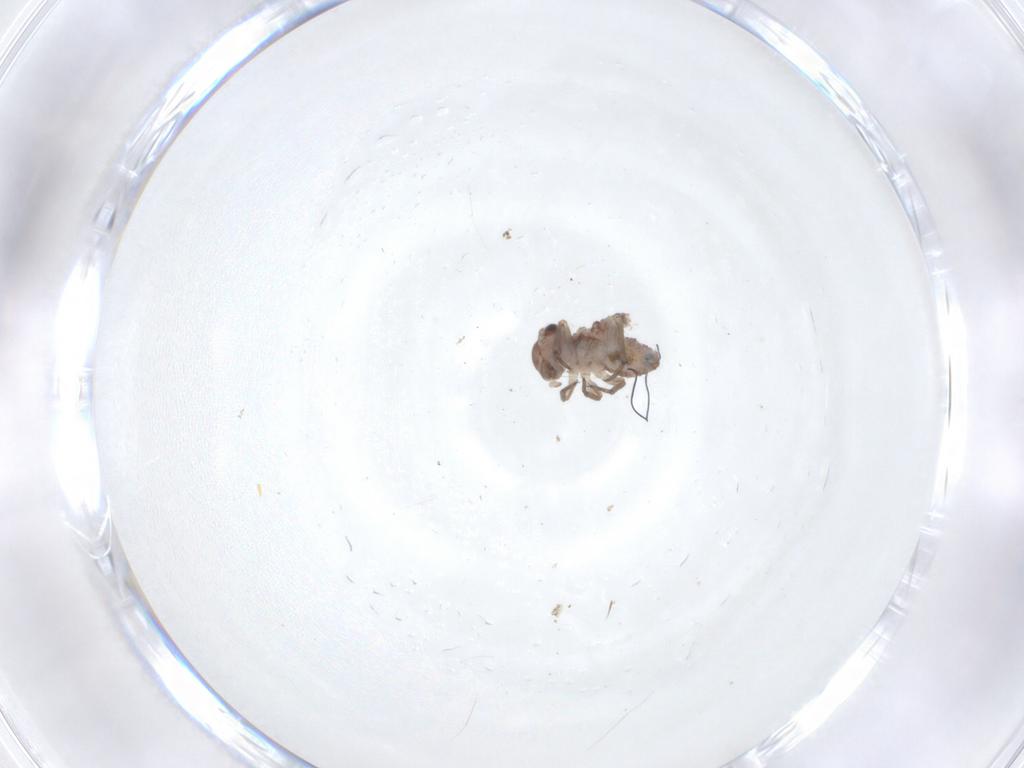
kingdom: Animalia
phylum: Arthropoda
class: Insecta
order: Psocodea
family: Psocidae
